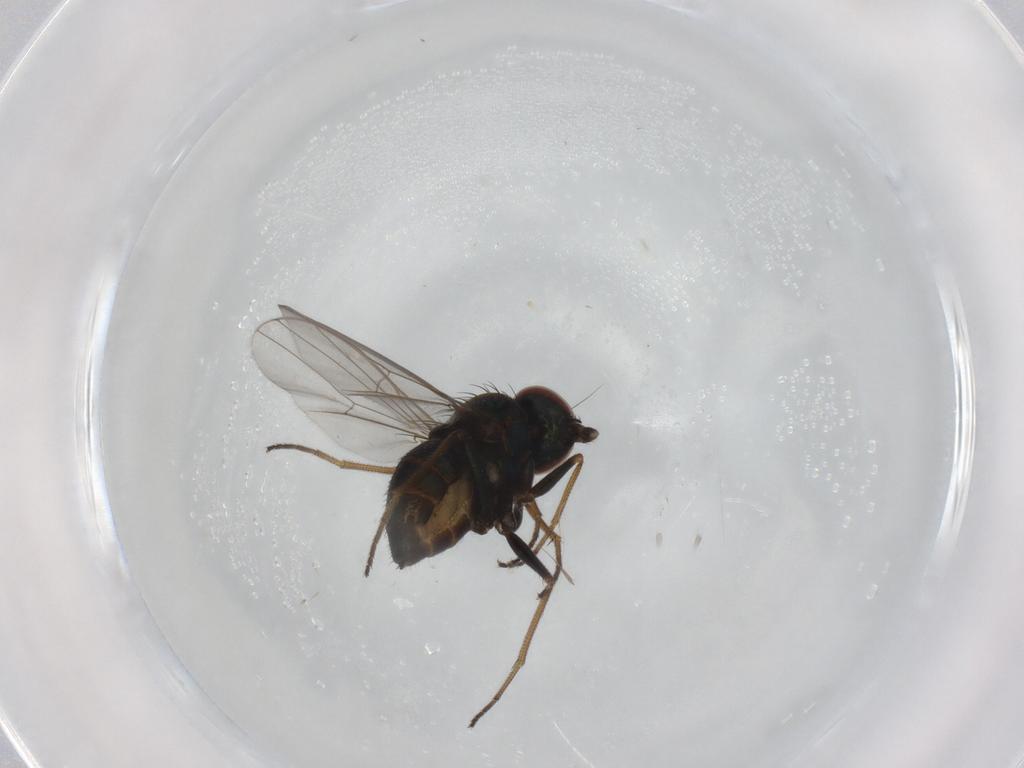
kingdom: Animalia
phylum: Arthropoda
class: Insecta
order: Diptera
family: Dolichopodidae
